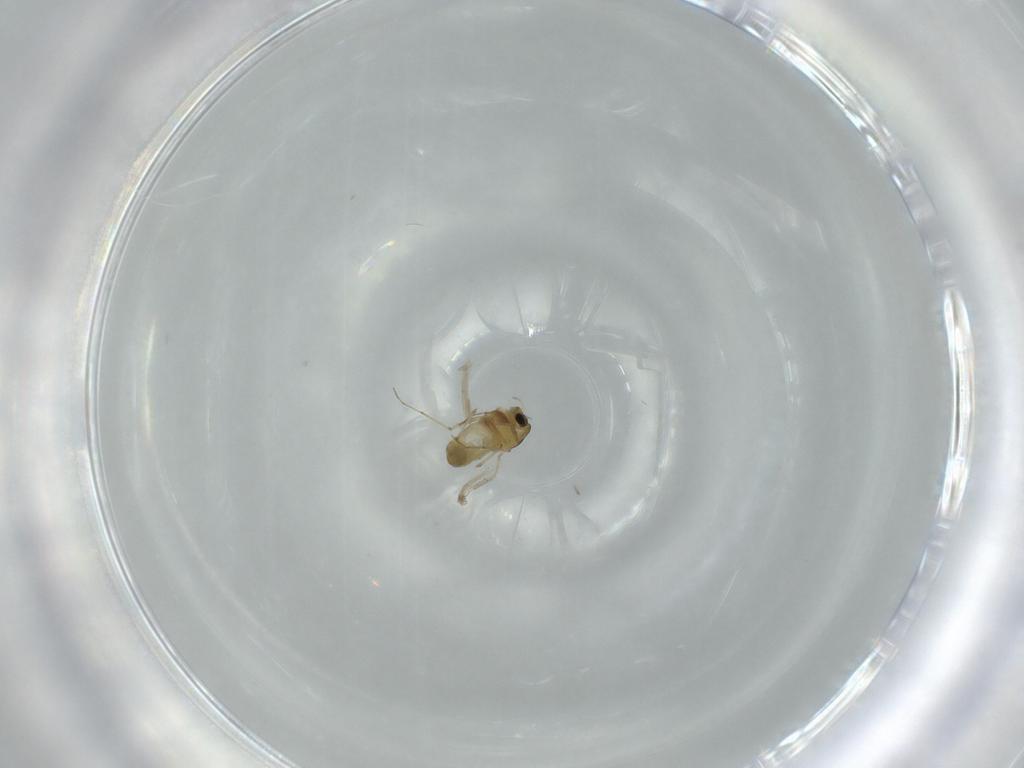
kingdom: Animalia
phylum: Arthropoda
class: Insecta
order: Diptera
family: Chironomidae
